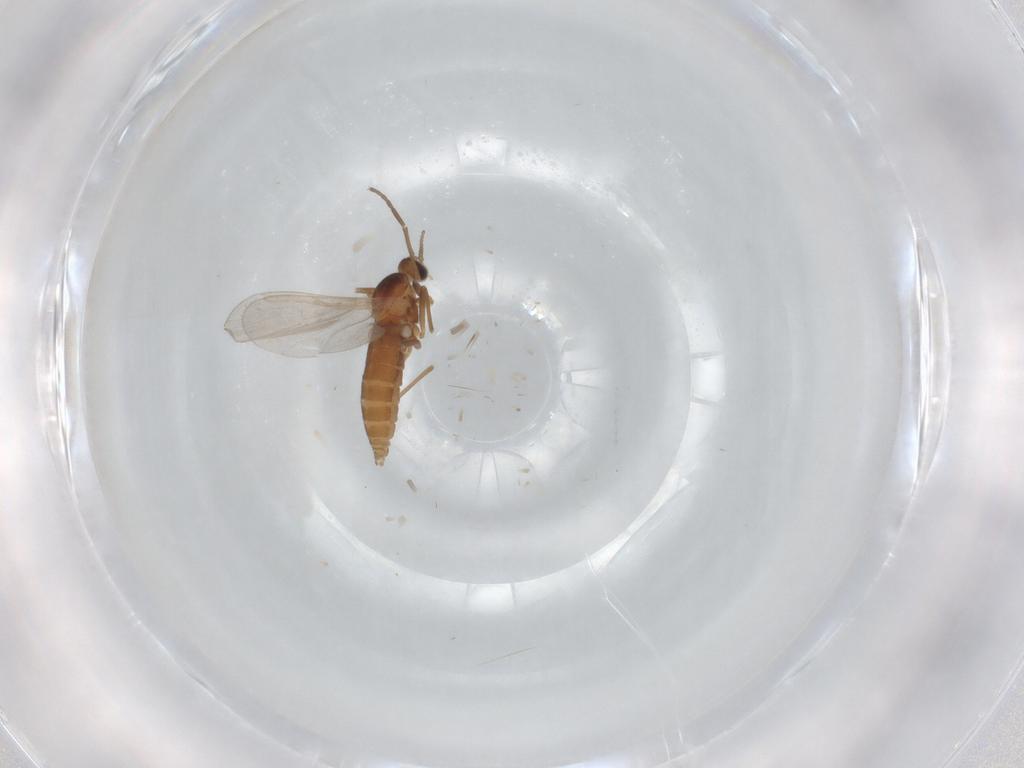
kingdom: Animalia
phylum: Arthropoda
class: Insecta
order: Diptera
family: Cecidomyiidae
